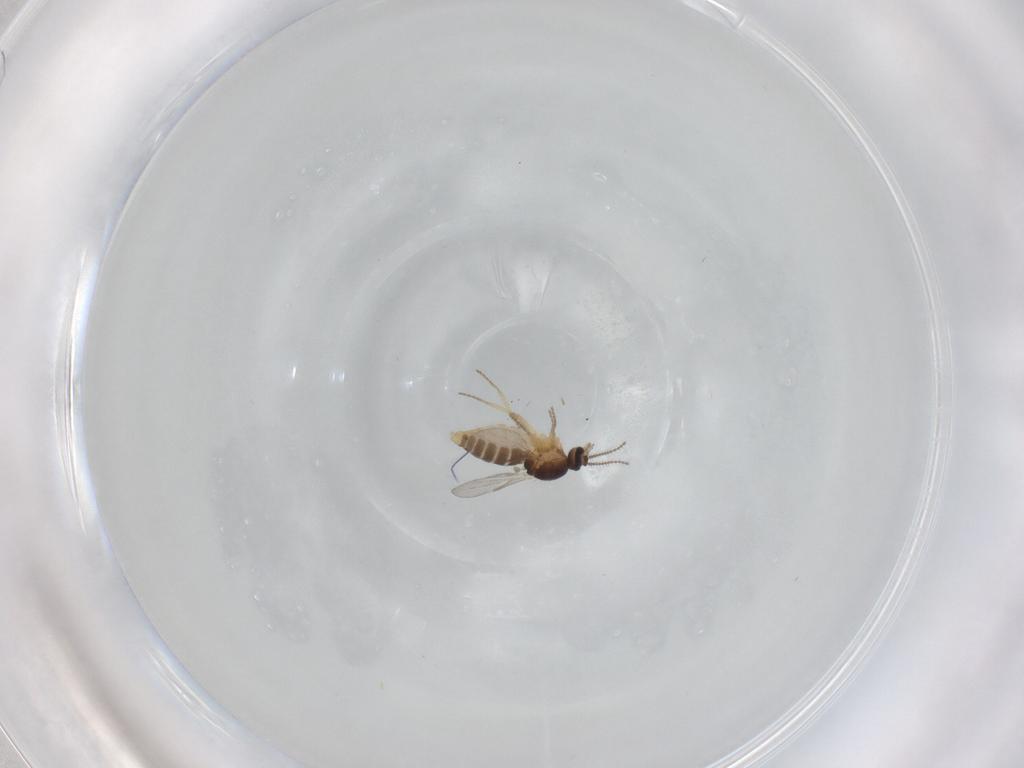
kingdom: Animalia
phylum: Arthropoda
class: Insecta
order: Diptera
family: Ceratopogonidae
